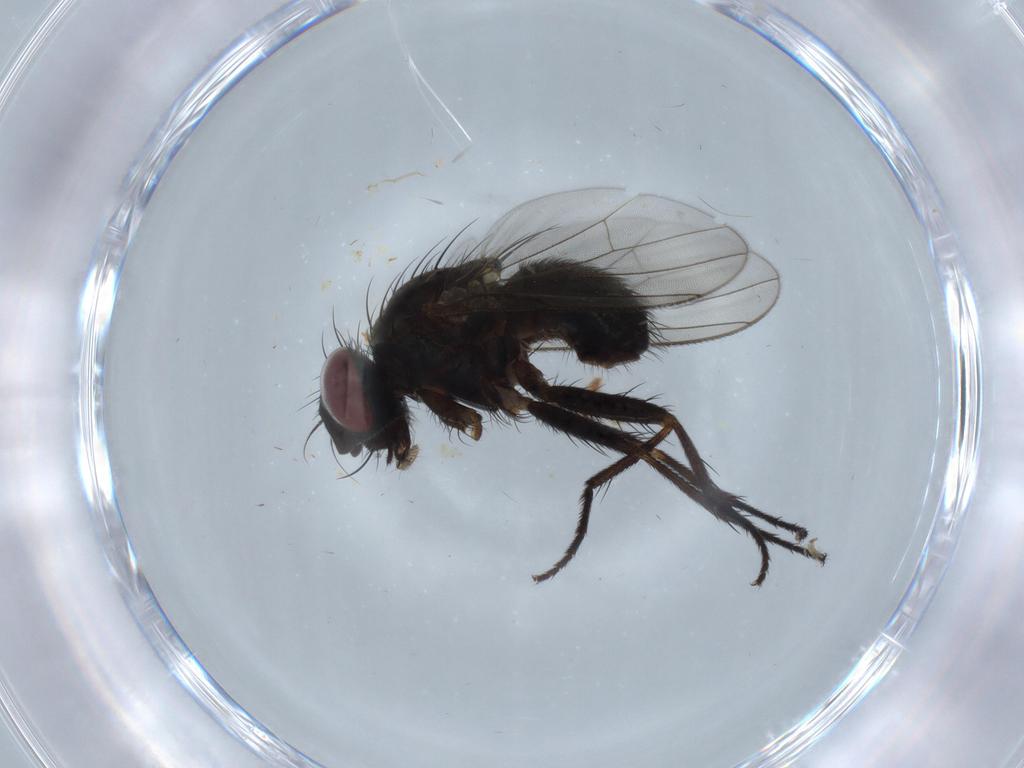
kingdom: Animalia
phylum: Arthropoda
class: Insecta
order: Diptera
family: Muscidae
